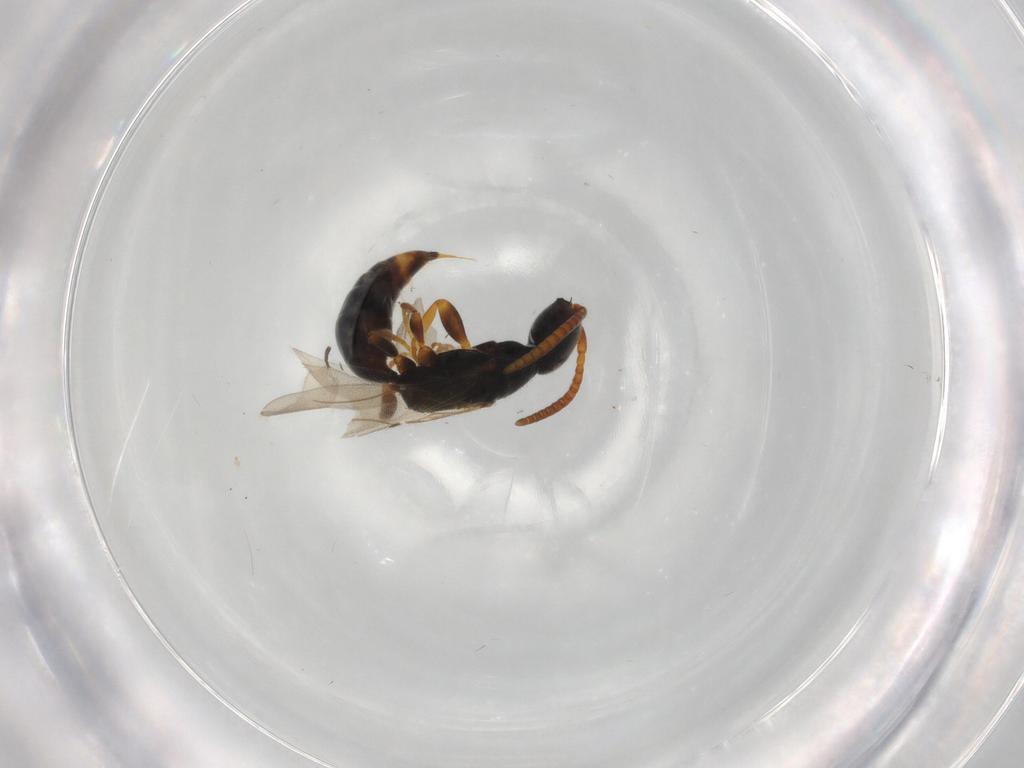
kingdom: Animalia
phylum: Arthropoda
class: Insecta
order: Hymenoptera
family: Bethylidae
